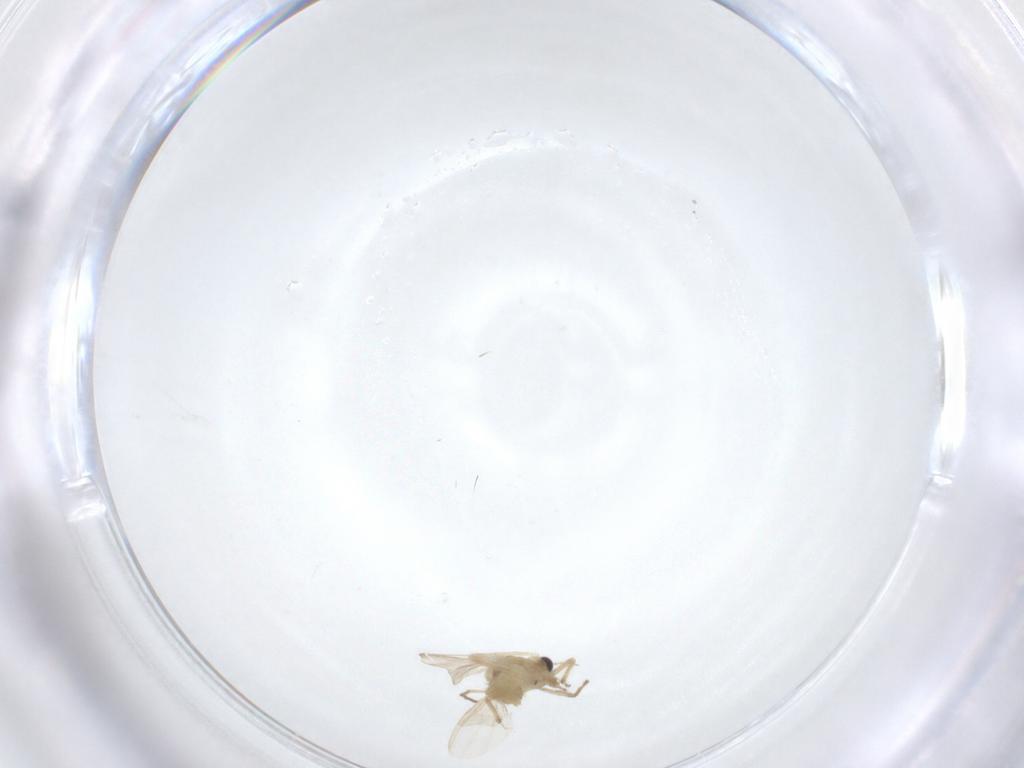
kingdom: Animalia
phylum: Arthropoda
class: Insecta
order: Diptera
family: Chironomidae
